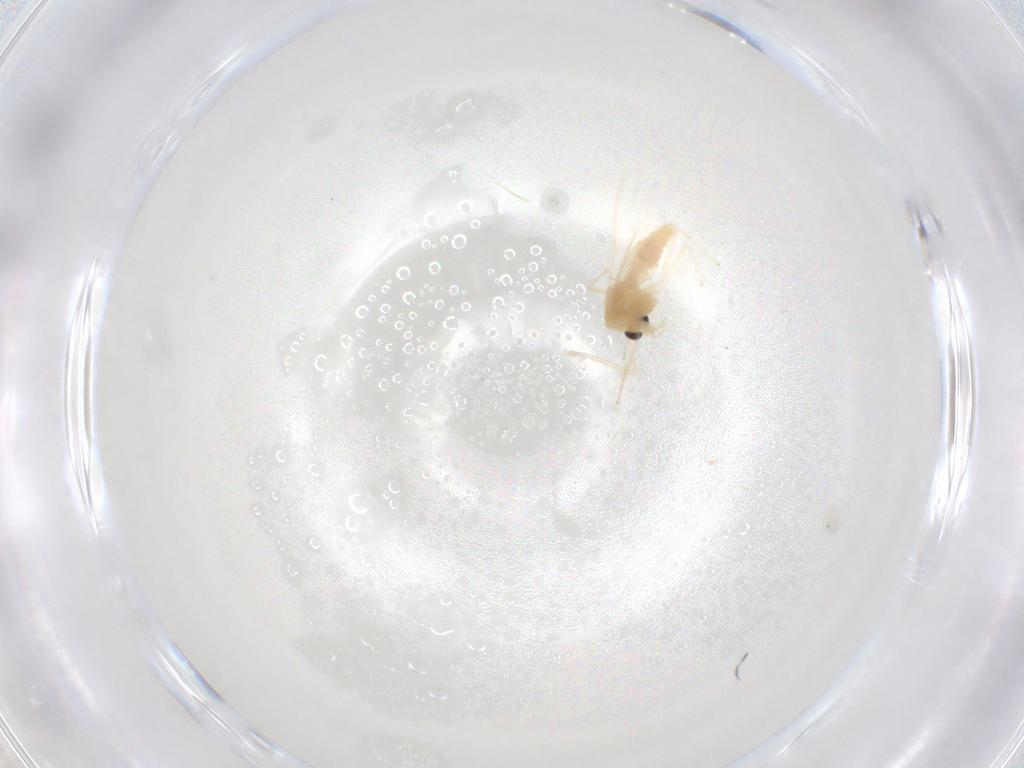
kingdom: Animalia
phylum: Arthropoda
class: Insecta
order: Diptera
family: Chironomidae
